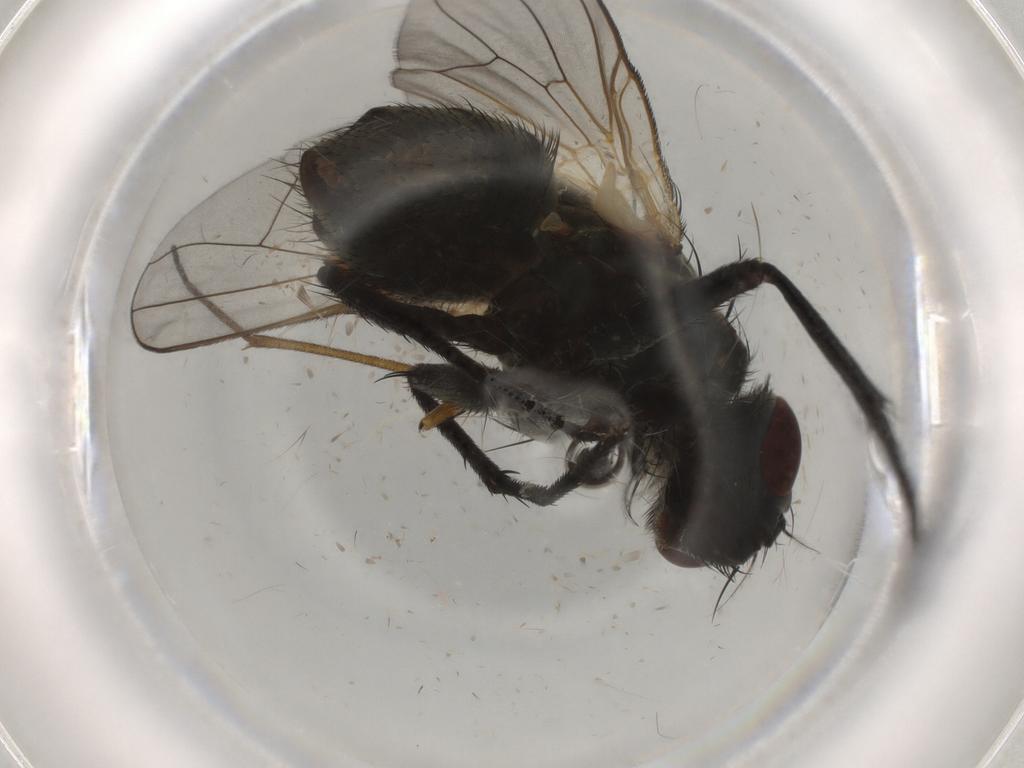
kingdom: Animalia
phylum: Arthropoda
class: Insecta
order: Diptera
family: Muscidae
